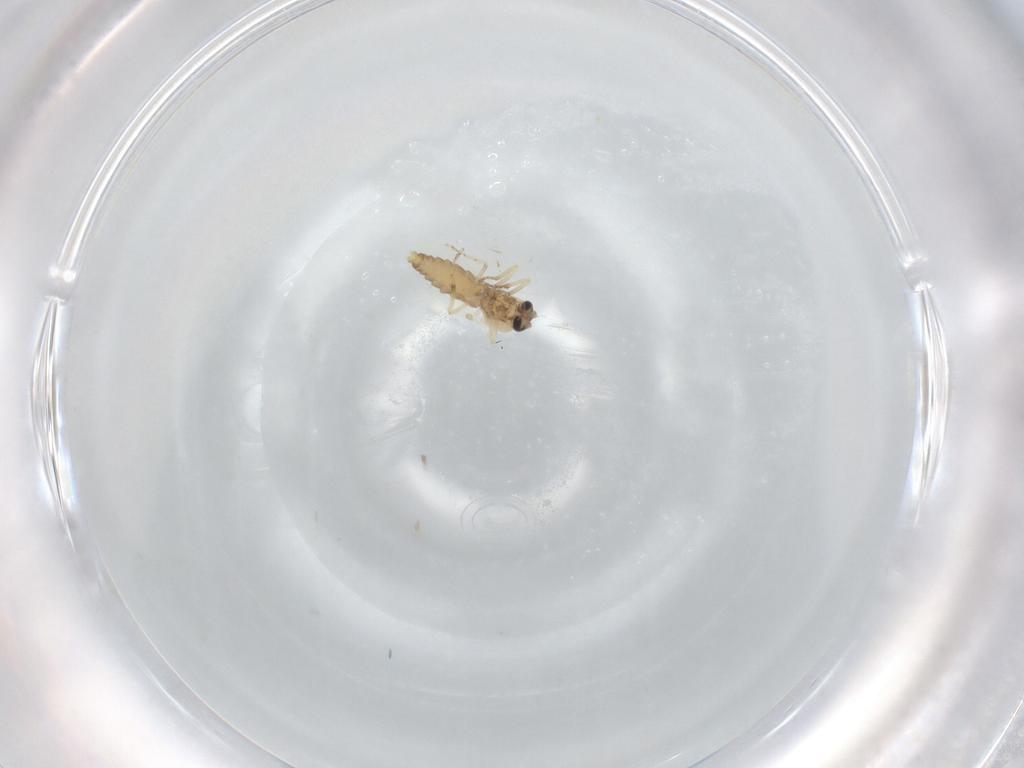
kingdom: Animalia
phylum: Arthropoda
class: Insecta
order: Diptera
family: Ceratopogonidae
